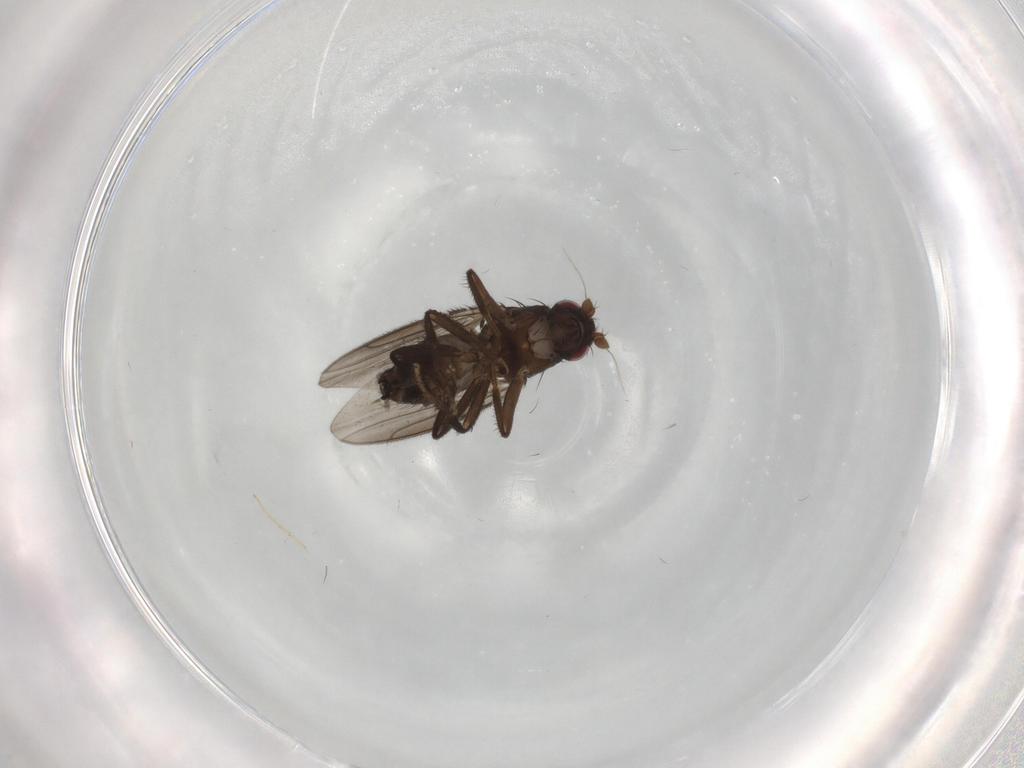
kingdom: Animalia
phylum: Arthropoda
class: Insecta
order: Diptera
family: Sphaeroceridae
